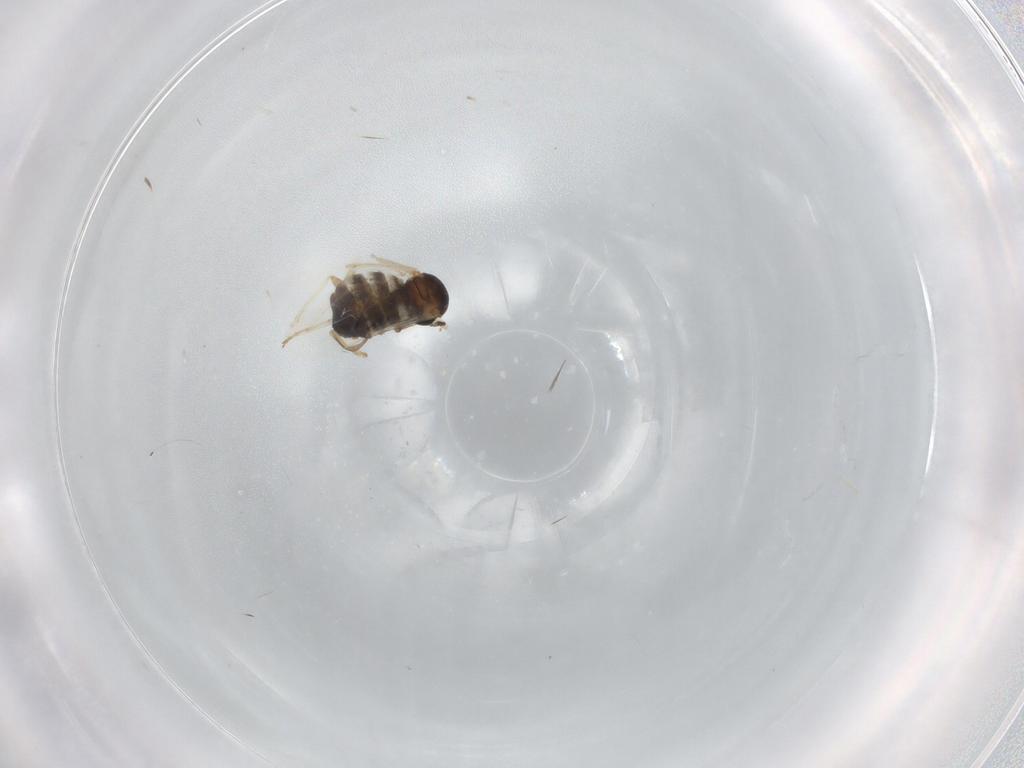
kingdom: Animalia
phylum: Arthropoda
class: Insecta
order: Diptera
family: Cecidomyiidae
